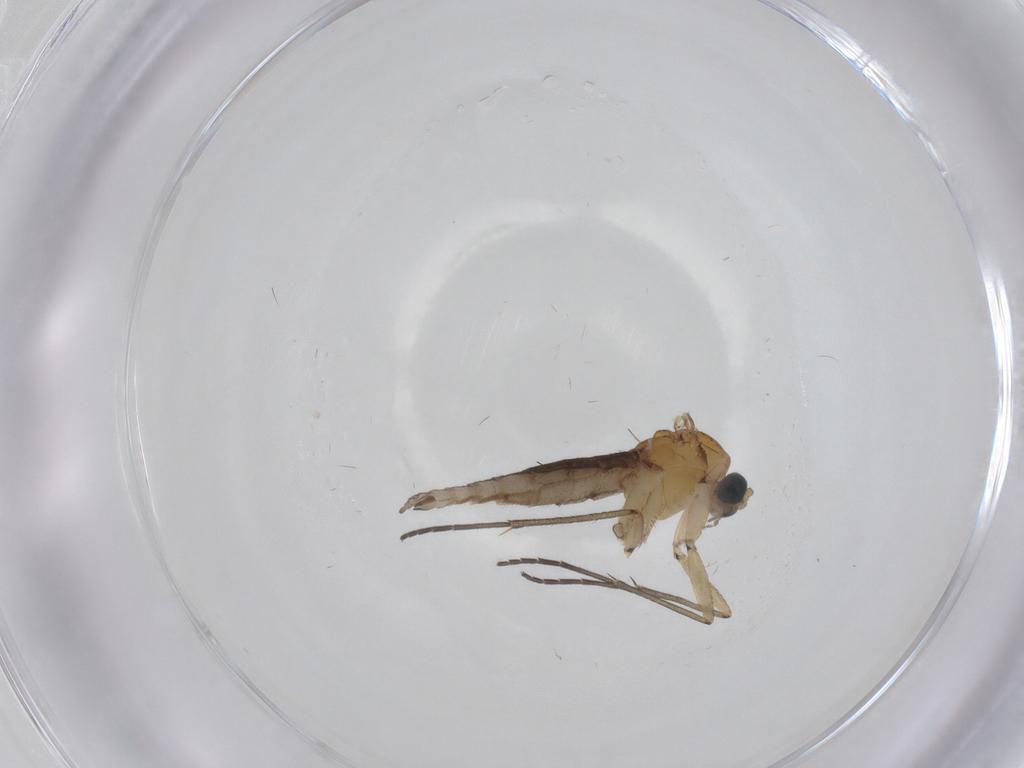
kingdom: Animalia
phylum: Arthropoda
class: Insecta
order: Diptera
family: Sciaridae
